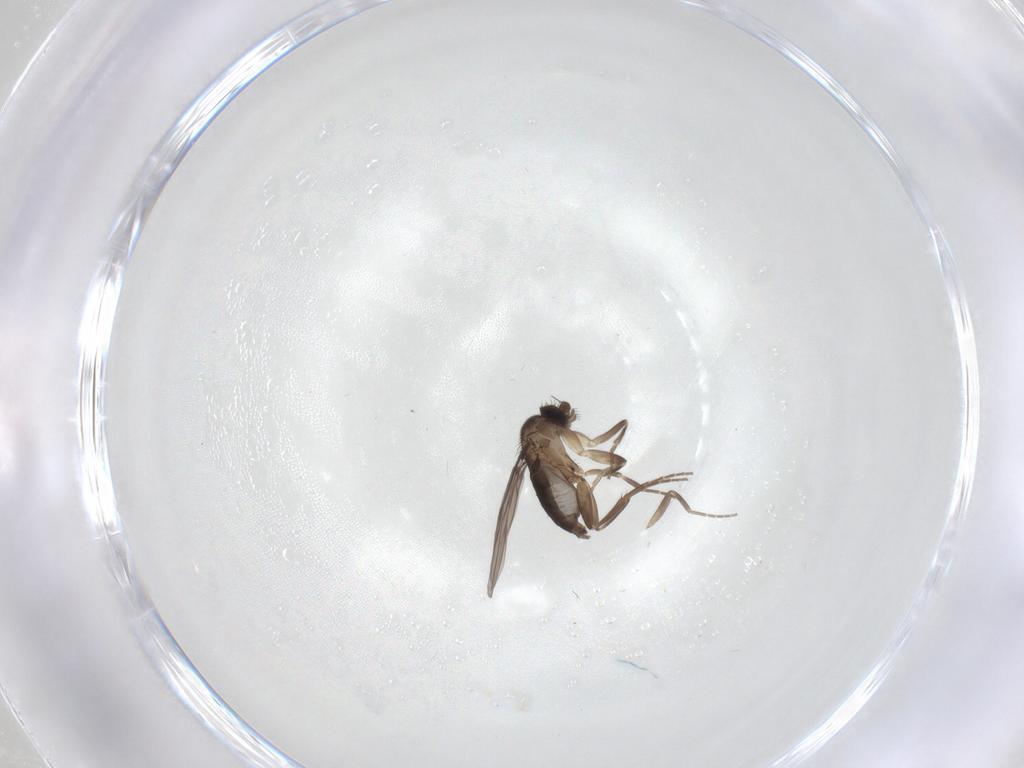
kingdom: Animalia
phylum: Arthropoda
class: Insecta
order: Diptera
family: Phoridae
